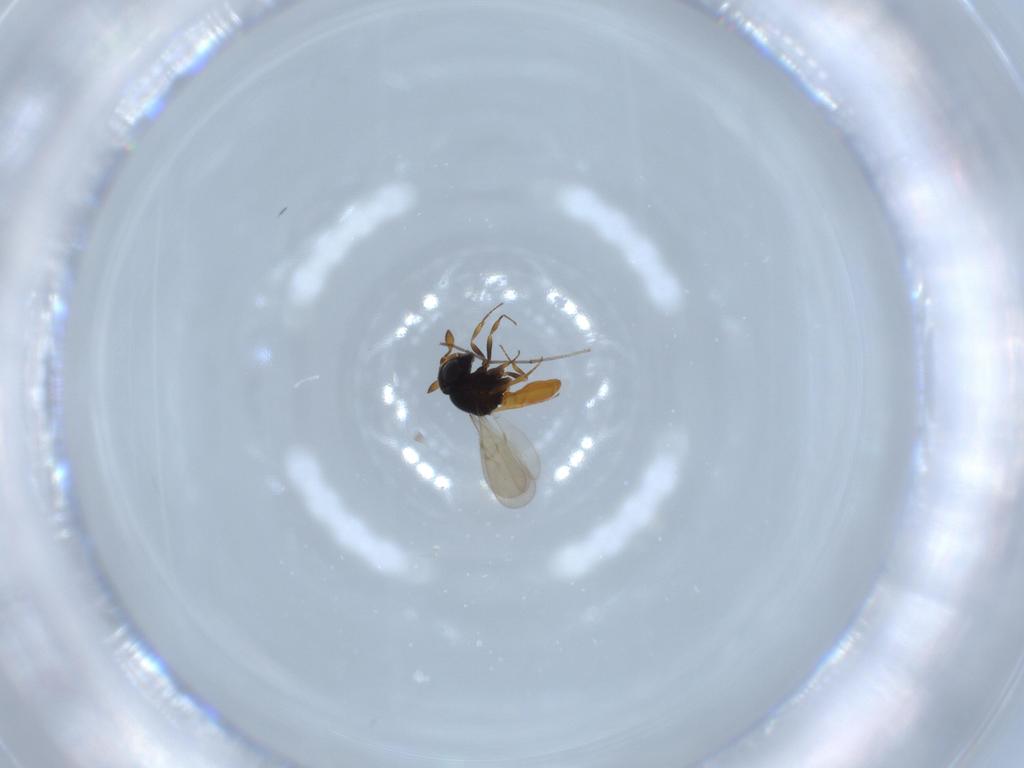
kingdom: Animalia
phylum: Arthropoda
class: Insecta
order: Hymenoptera
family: Scelionidae
